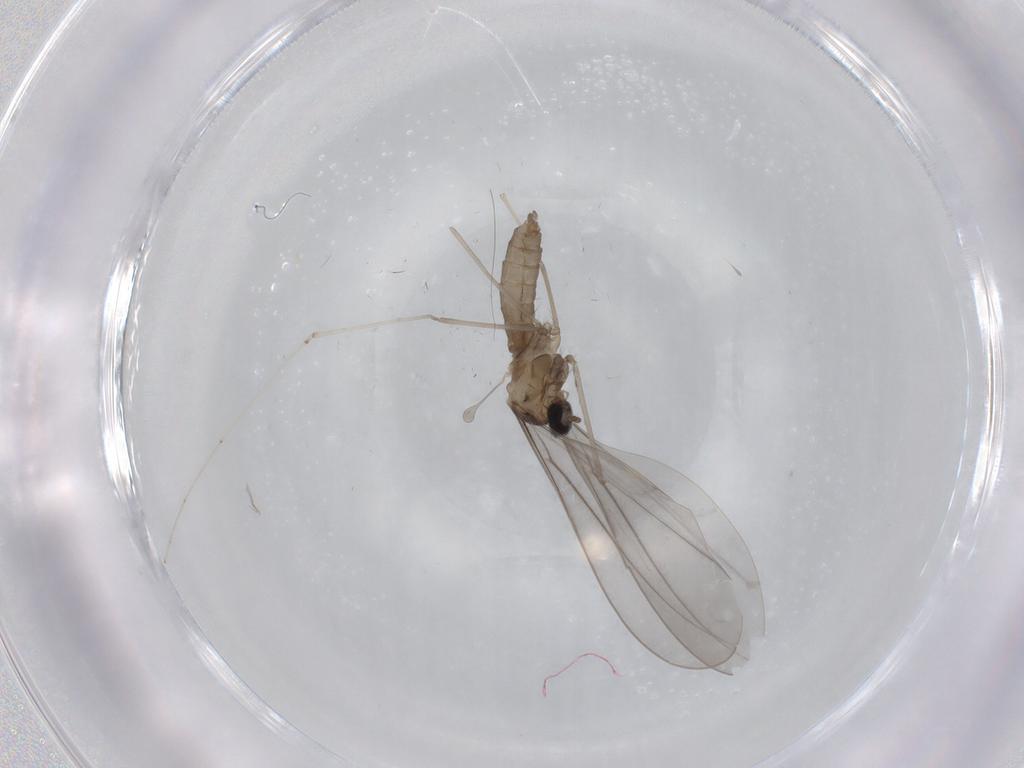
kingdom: Animalia
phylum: Arthropoda
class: Insecta
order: Diptera
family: Cecidomyiidae
